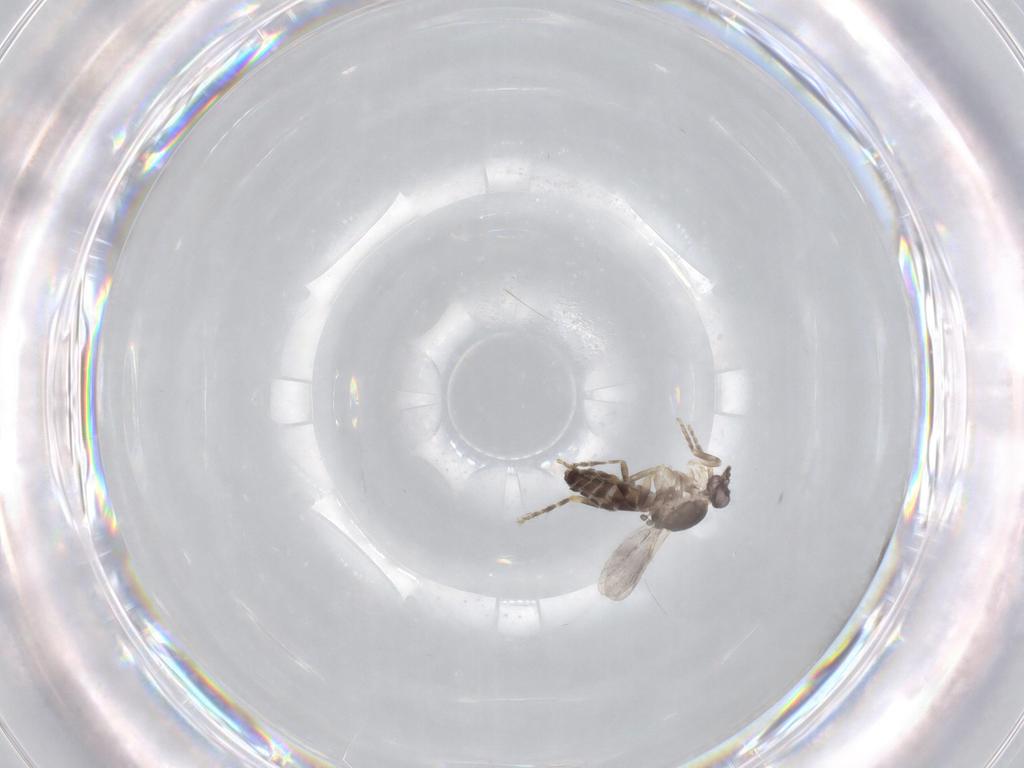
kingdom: Animalia
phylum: Arthropoda
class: Insecta
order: Diptera
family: Ceratopogonidae
